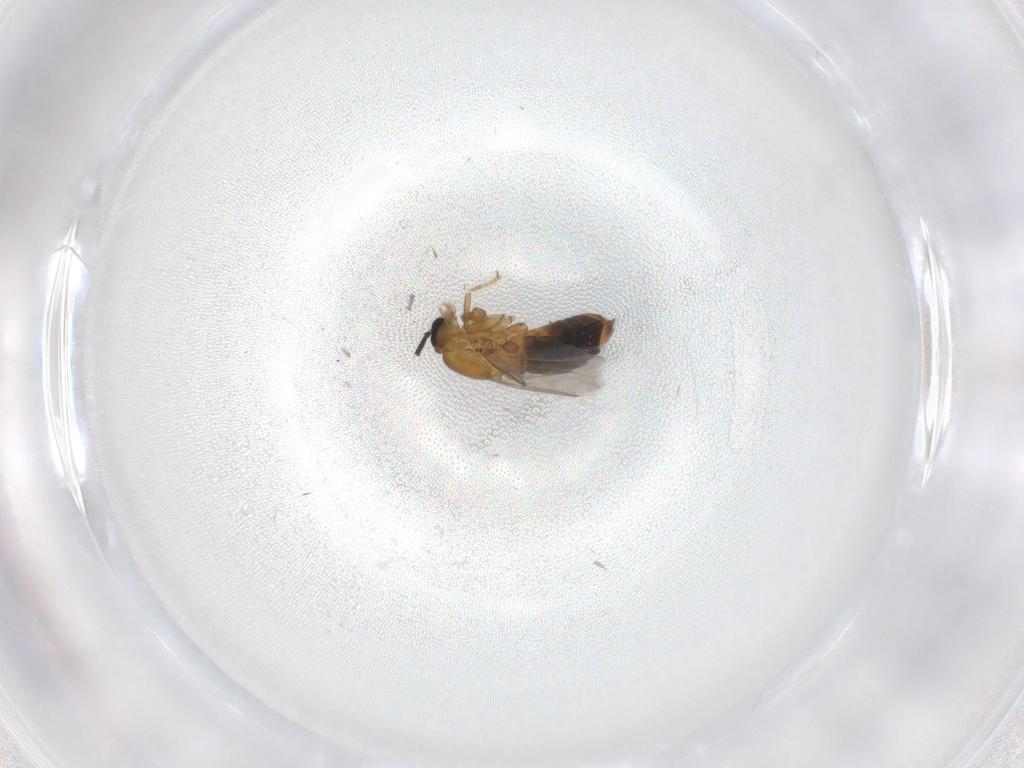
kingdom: Animalia
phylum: Arthropoda
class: Insecta
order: Diptera
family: Scatopsidae
